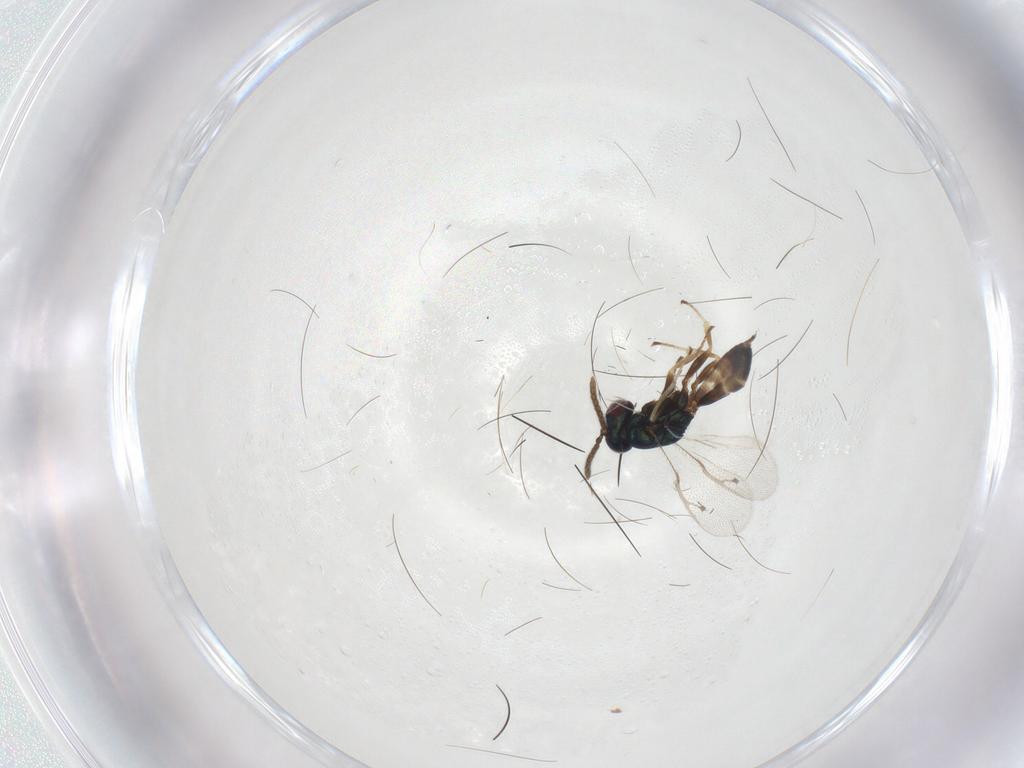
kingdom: Animalia
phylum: Arthropoda
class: Insecta
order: Hymenoptera
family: Pteromalidae
